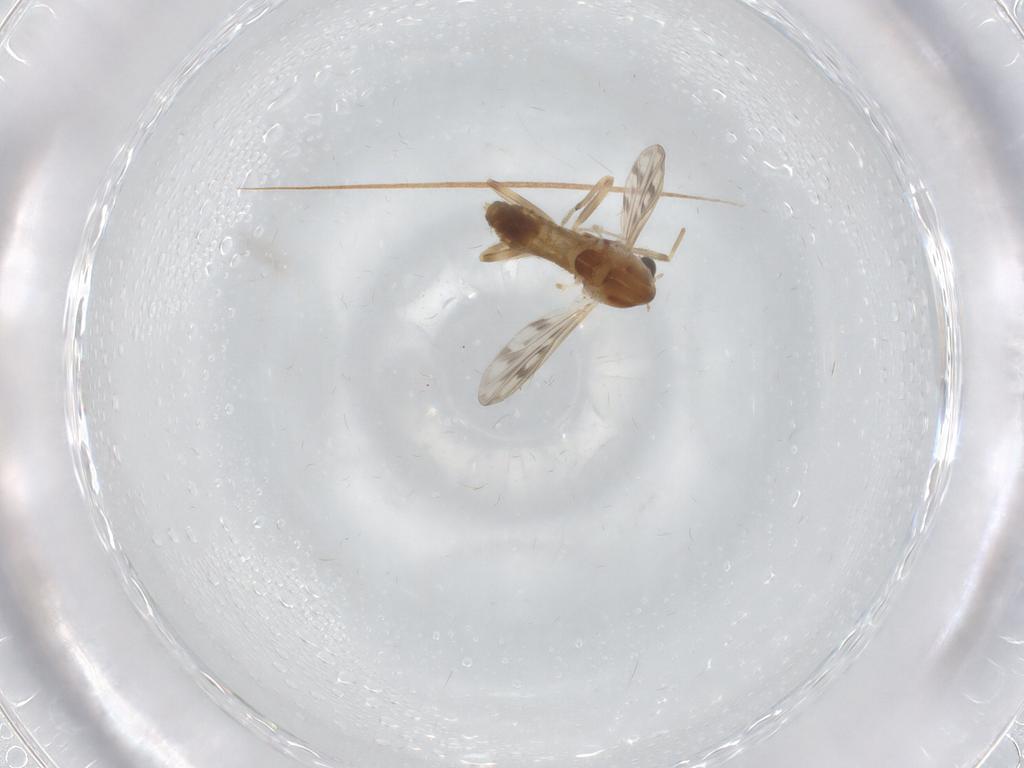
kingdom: Animalia
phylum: Arthropoda
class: Insecta
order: Diptera
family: Chironomidae
